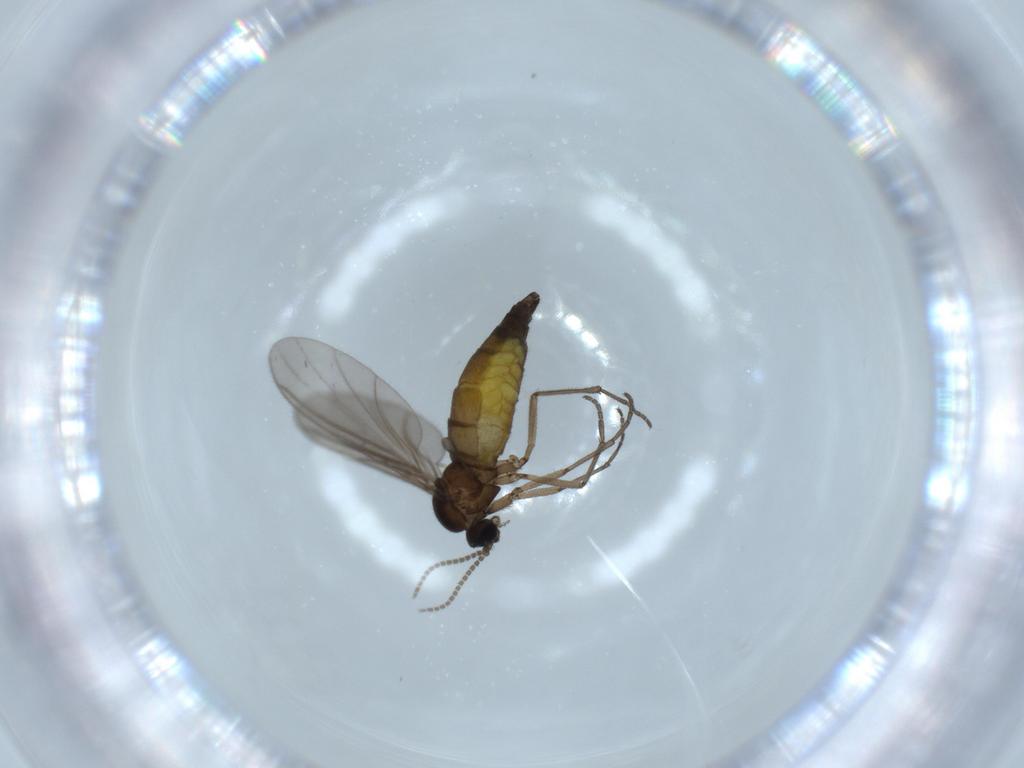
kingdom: Animalia
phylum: Arthropoda
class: Insecta
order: Diptera
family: Sciaridae
